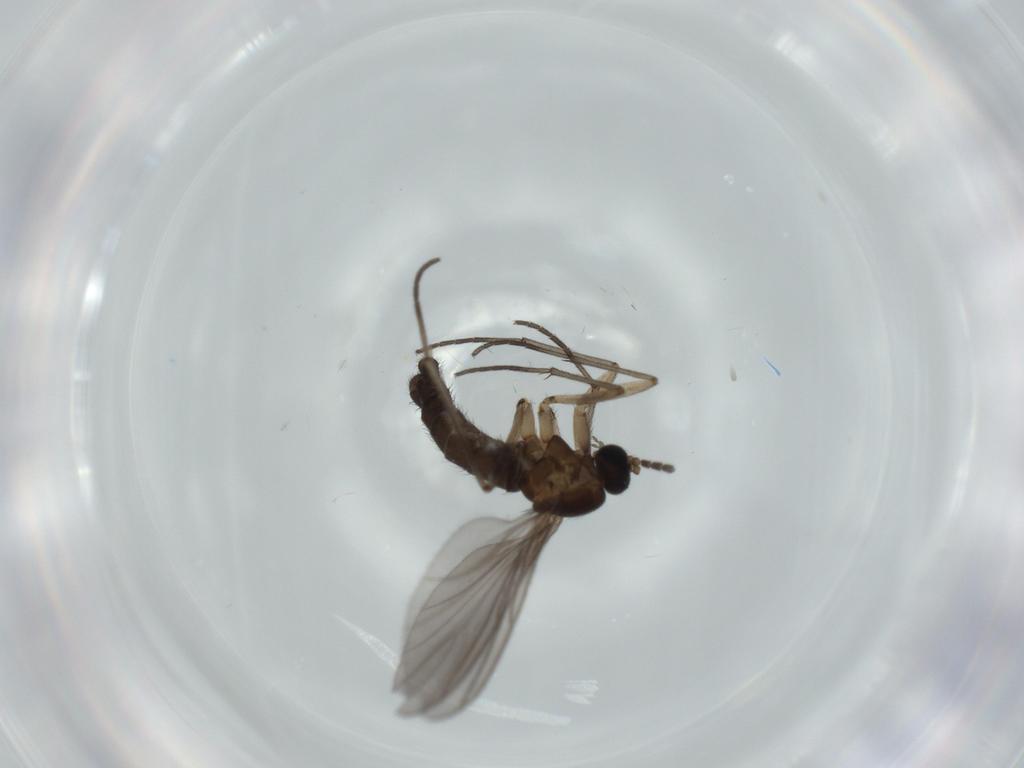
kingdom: Animalia
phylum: Arthropoda
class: Insecta
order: Diptera
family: Sciaridae
